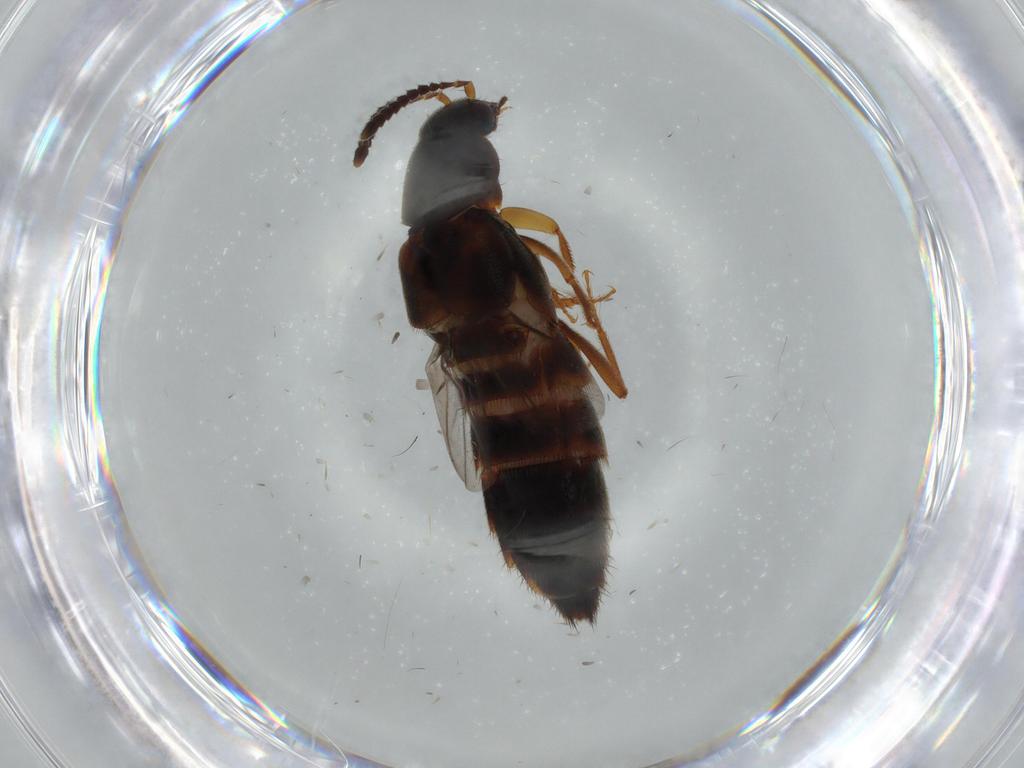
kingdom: Animalia
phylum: Arthropoda
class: Insecta
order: Coleoptera
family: Staphylinidae
